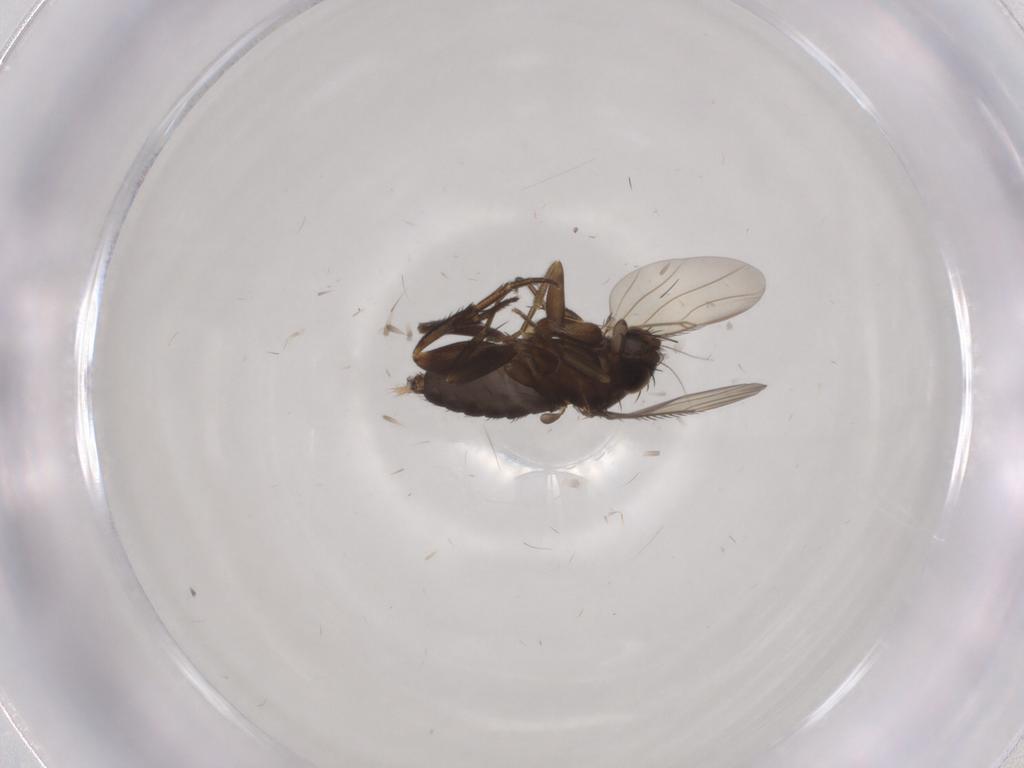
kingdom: Animalia
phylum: Arthropoda
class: Insecta
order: Diptera
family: Phoridae
